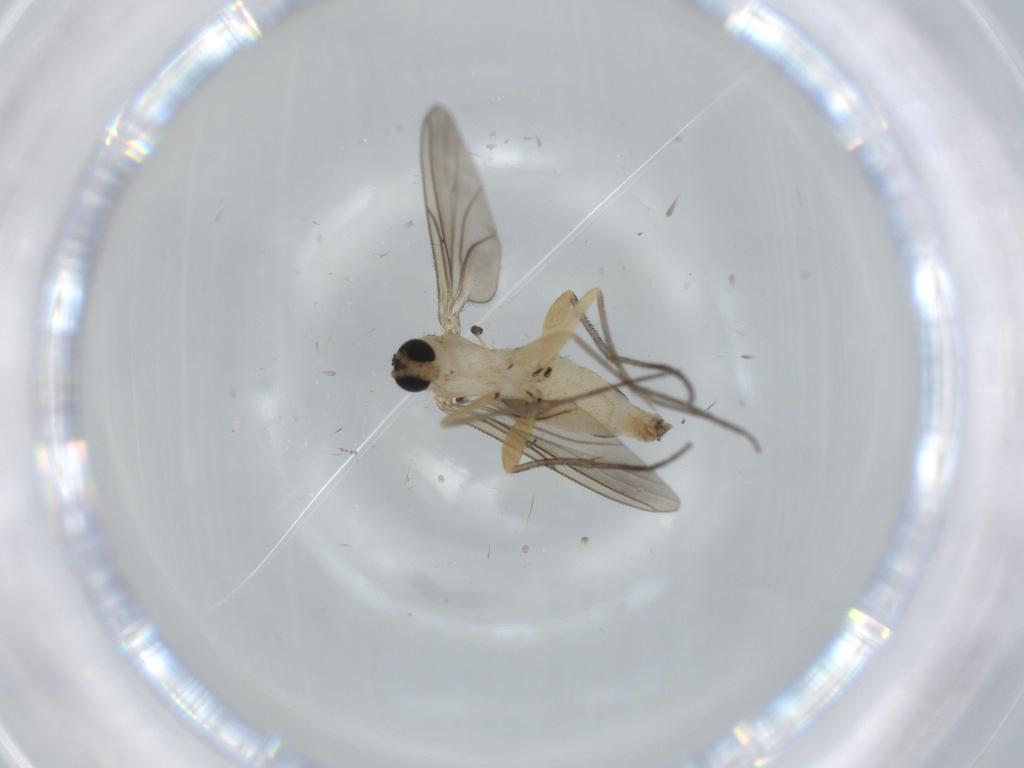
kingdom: Animalia
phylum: Arthropoda
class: Insecta
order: Diptera
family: Sciaridae
